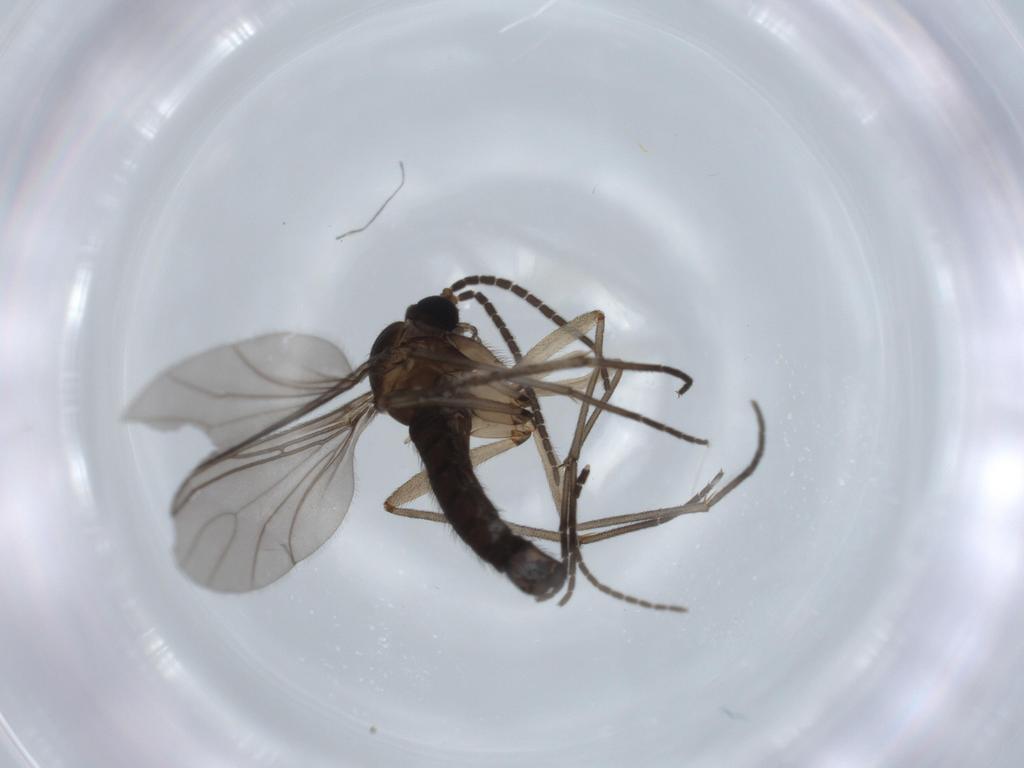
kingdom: Animalia
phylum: Arthropoda
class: Insecta
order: Diptera
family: Sciaridae
